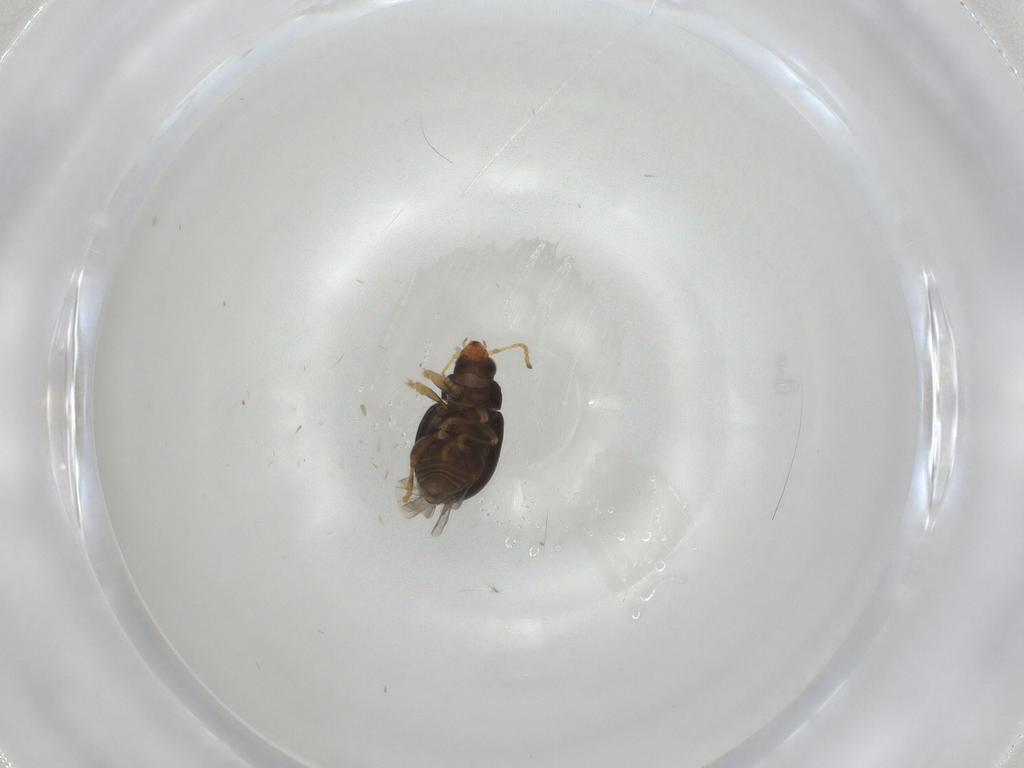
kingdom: Animalia
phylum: Arthropoda
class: Insecta
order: Coleoptera
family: Chrysomelidae
